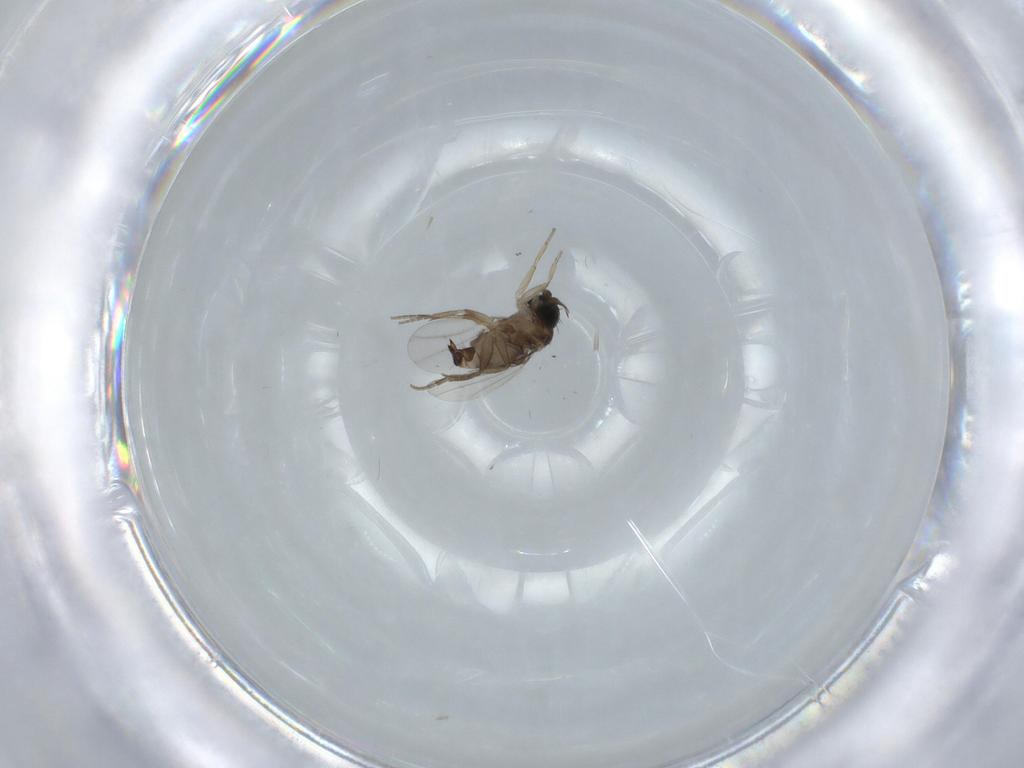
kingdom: Animalia
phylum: Arthropoda
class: Insecta
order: Diptera
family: Phoridae
